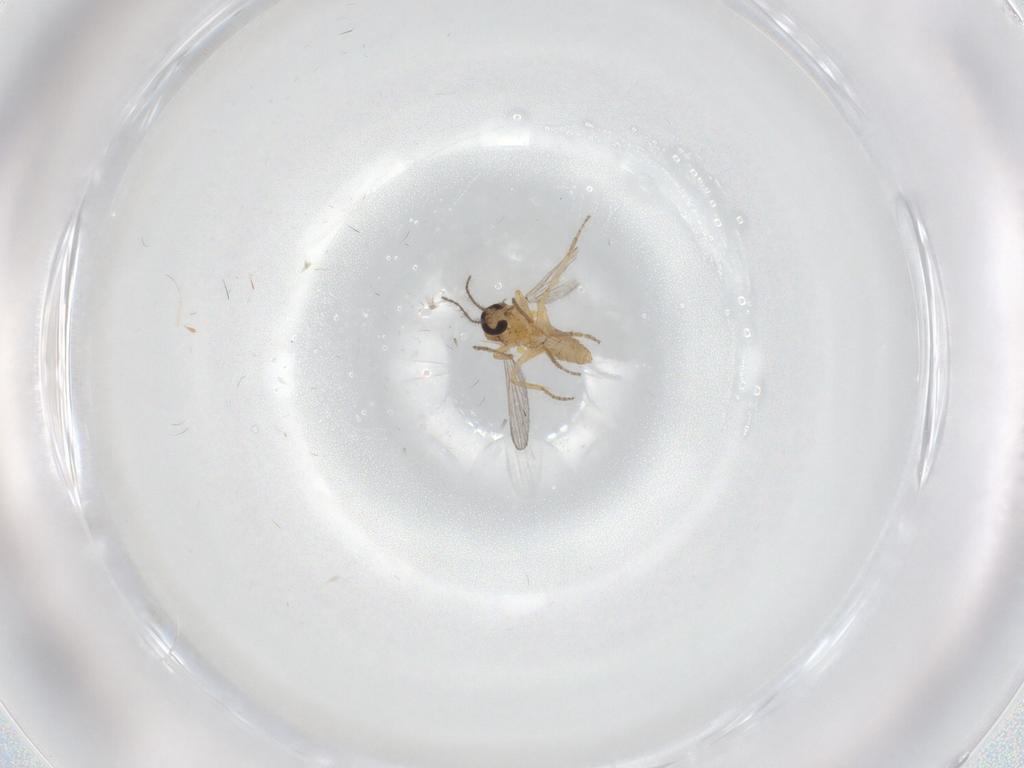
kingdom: Animalia
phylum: Arthropoda
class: Insecta
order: Diptera
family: Ceratopogonidae
